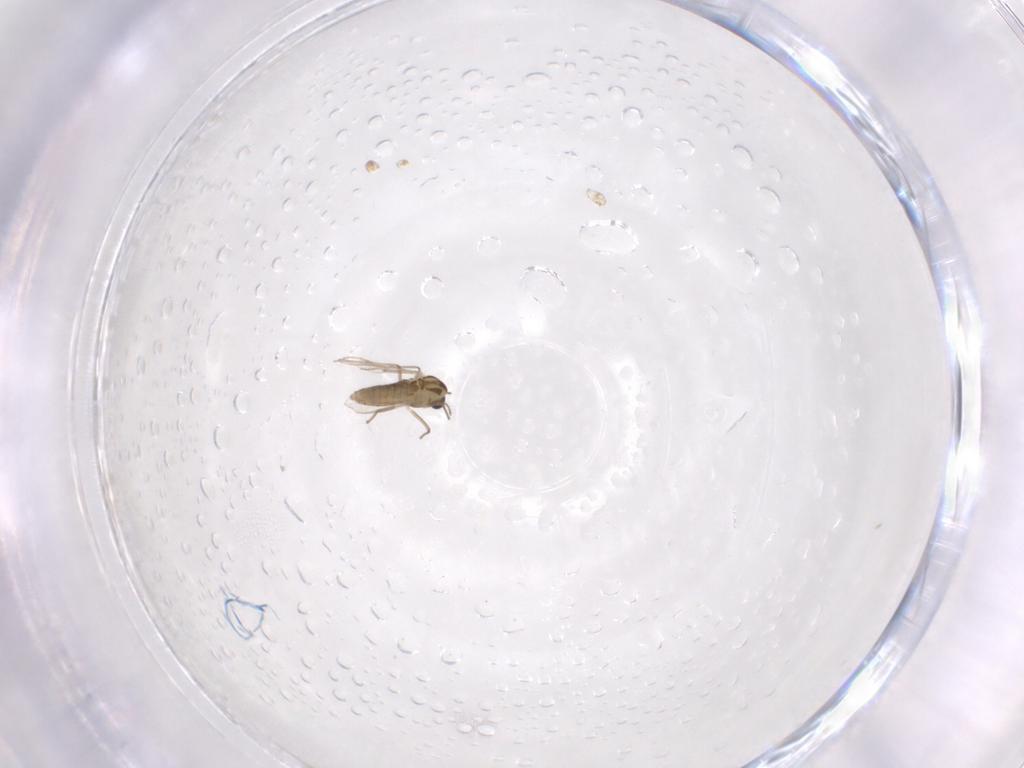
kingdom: Animalia
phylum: Arthropoda
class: Insecta
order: Diptera
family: Chironomidae
